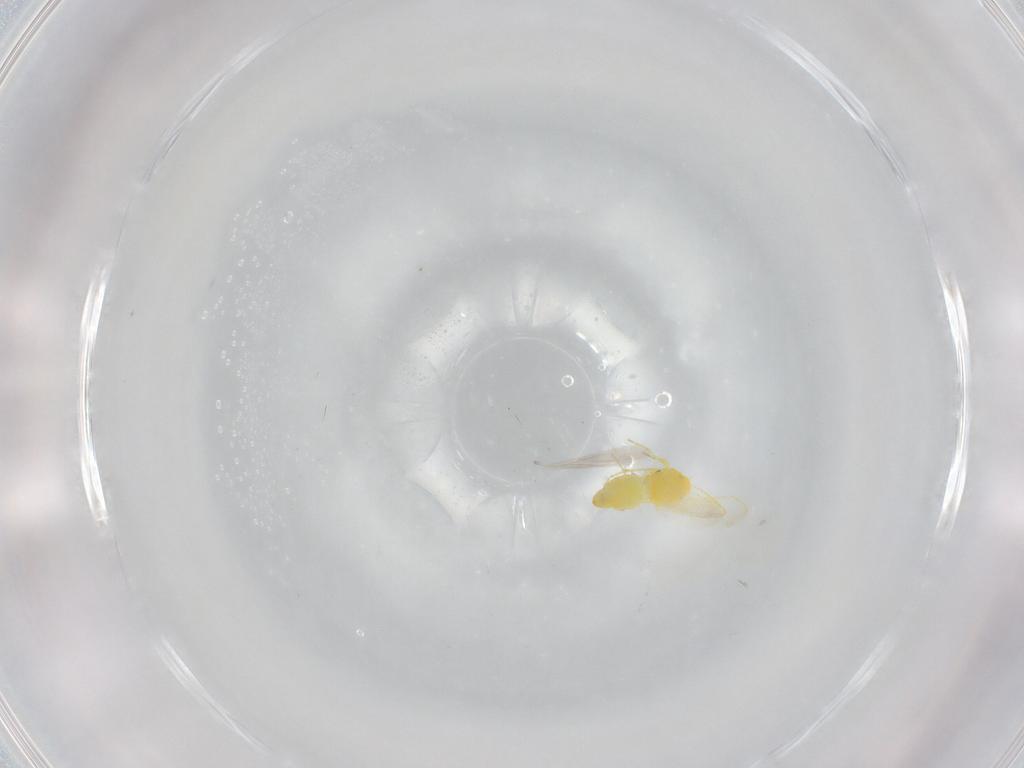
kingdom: Animalia
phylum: Arthropoda
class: Insecta
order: Hemiptera
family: Aleyrodidae
